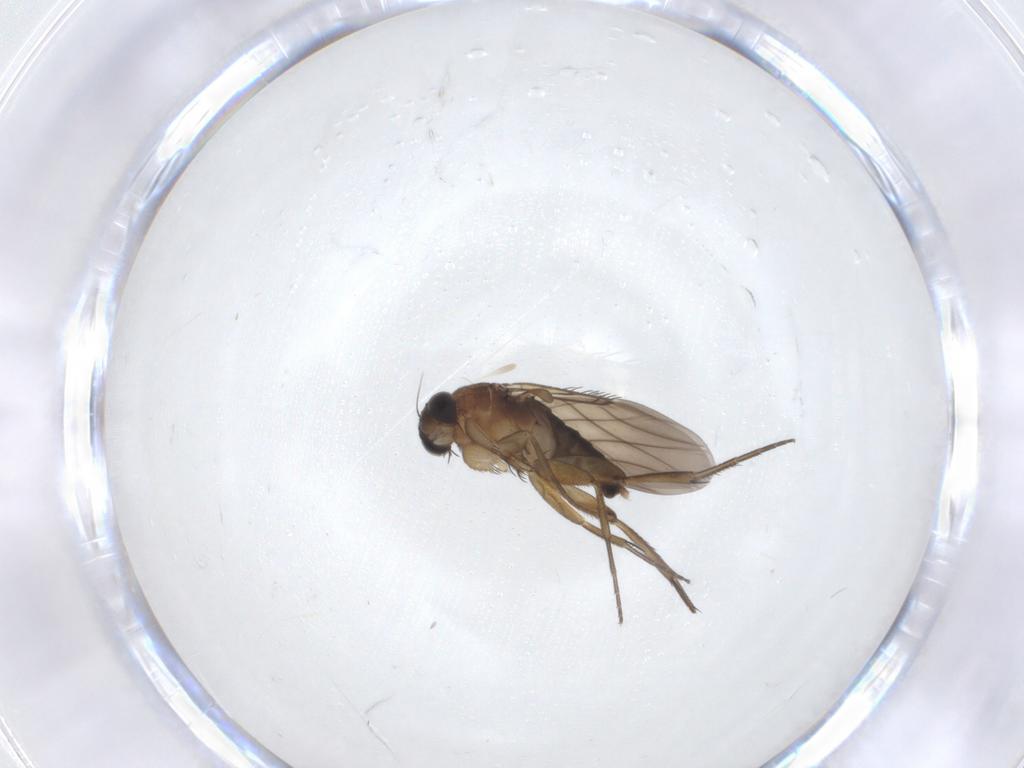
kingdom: Animalia
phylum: Arthropoda
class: Insecta
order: Diptera
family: Phoridae
